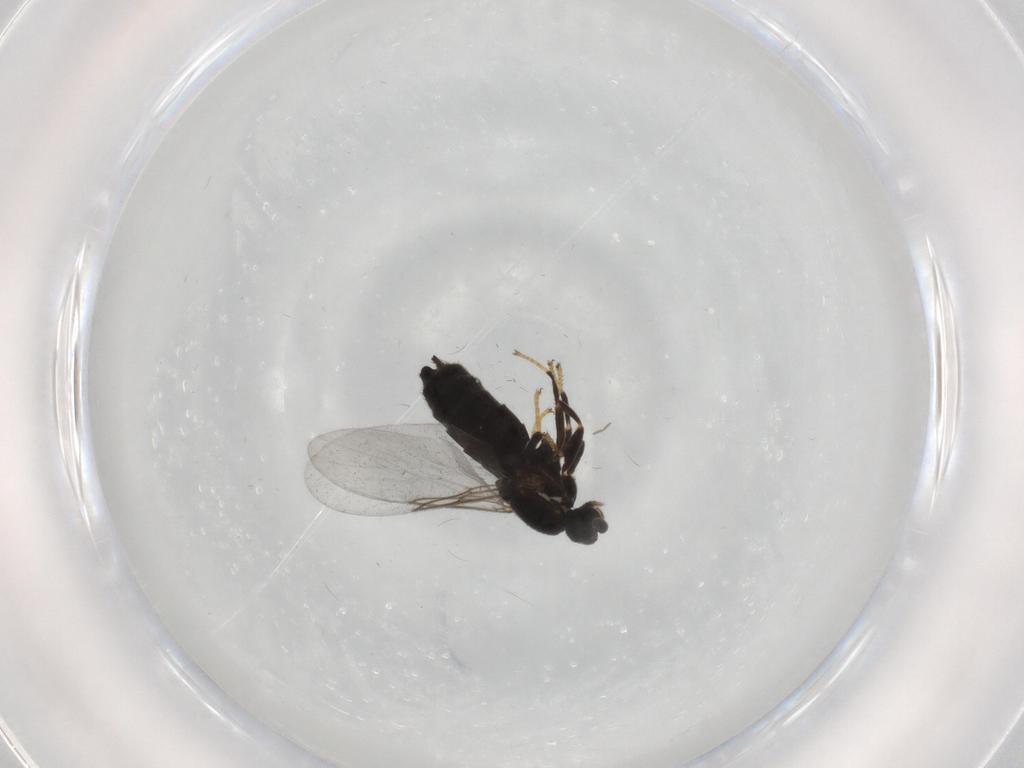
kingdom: Animalia
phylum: Arthropoda
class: Insecta
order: Diptera
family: Scatopsidae
